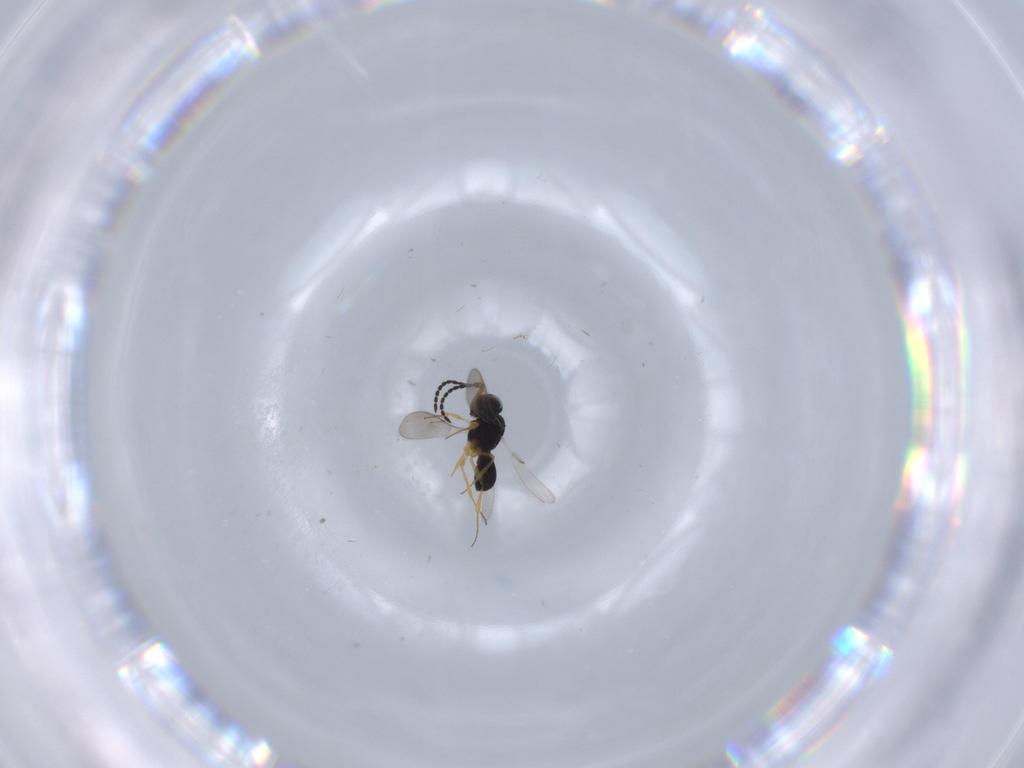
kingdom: Animalia
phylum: Arthropoda
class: Insecta
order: Hymenoptera
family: Scelionidae
